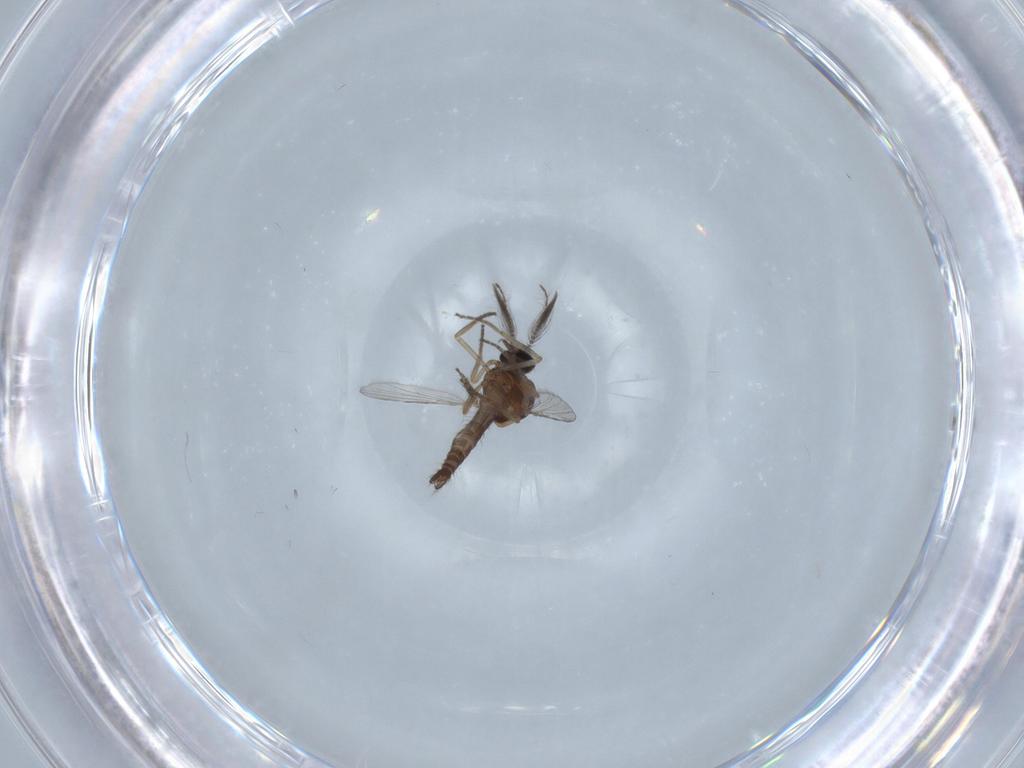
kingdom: Animalia
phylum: Arthropoda
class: Insecta
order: Diptera
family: Ceratopogonidae
